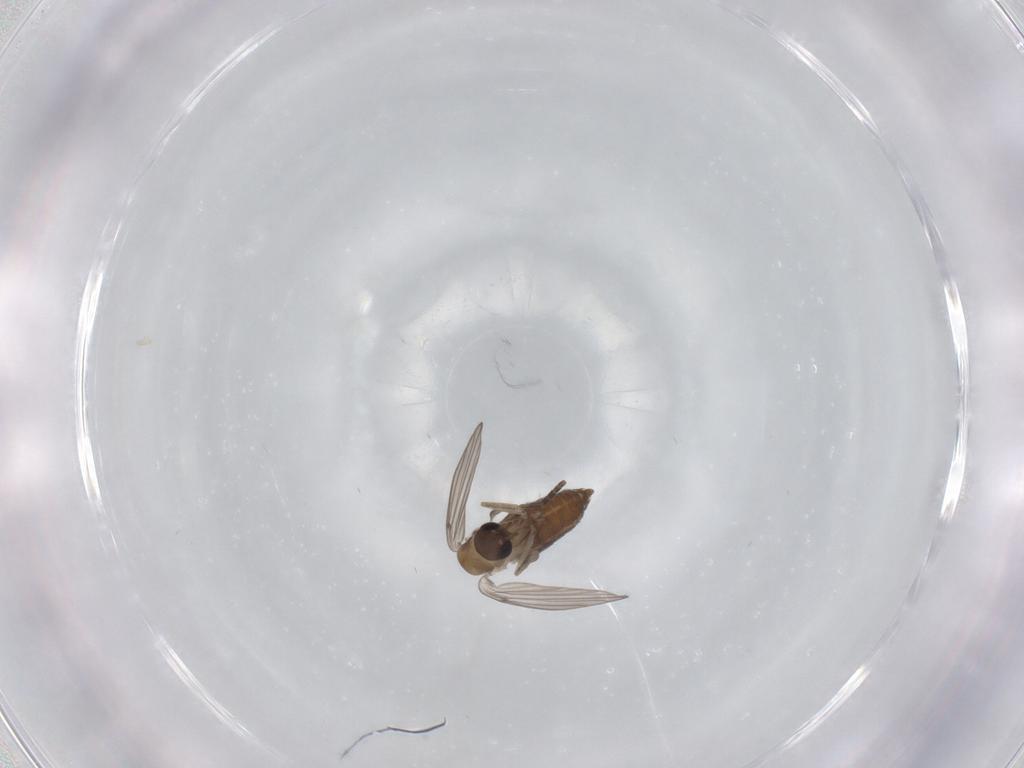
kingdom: Animalia
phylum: Arthropoda
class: Insecta
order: Diptera
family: Psychodidae
